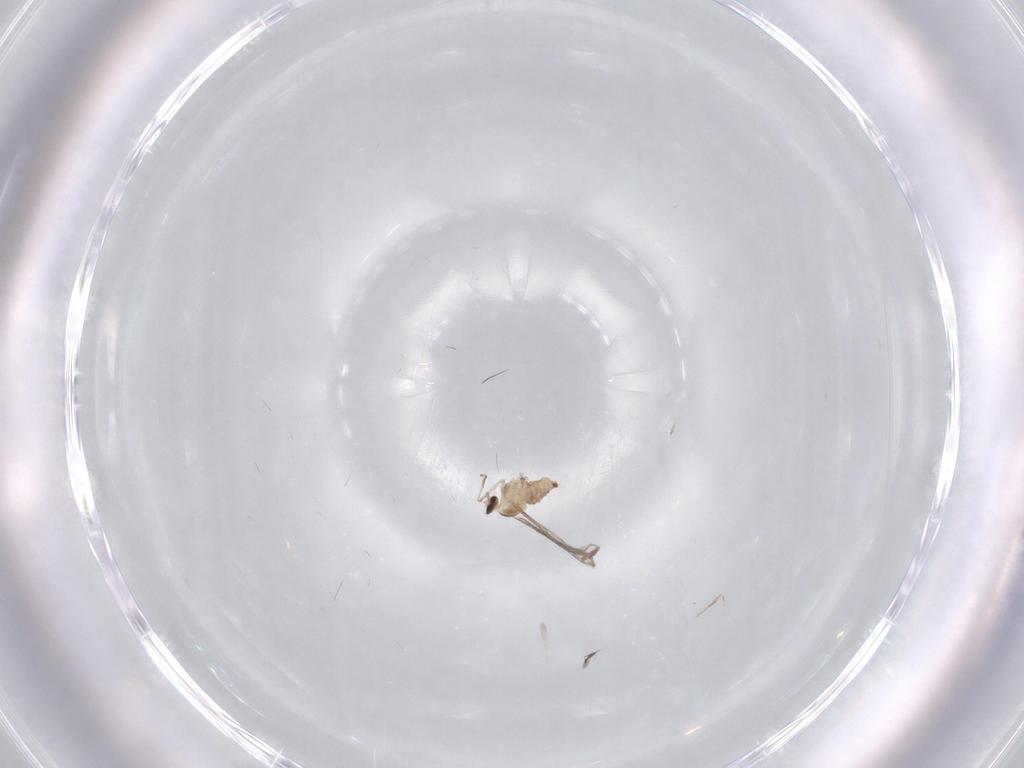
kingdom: Animalia
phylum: Arthropoda
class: Insecta
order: Diptera
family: Cecidomyiidae
